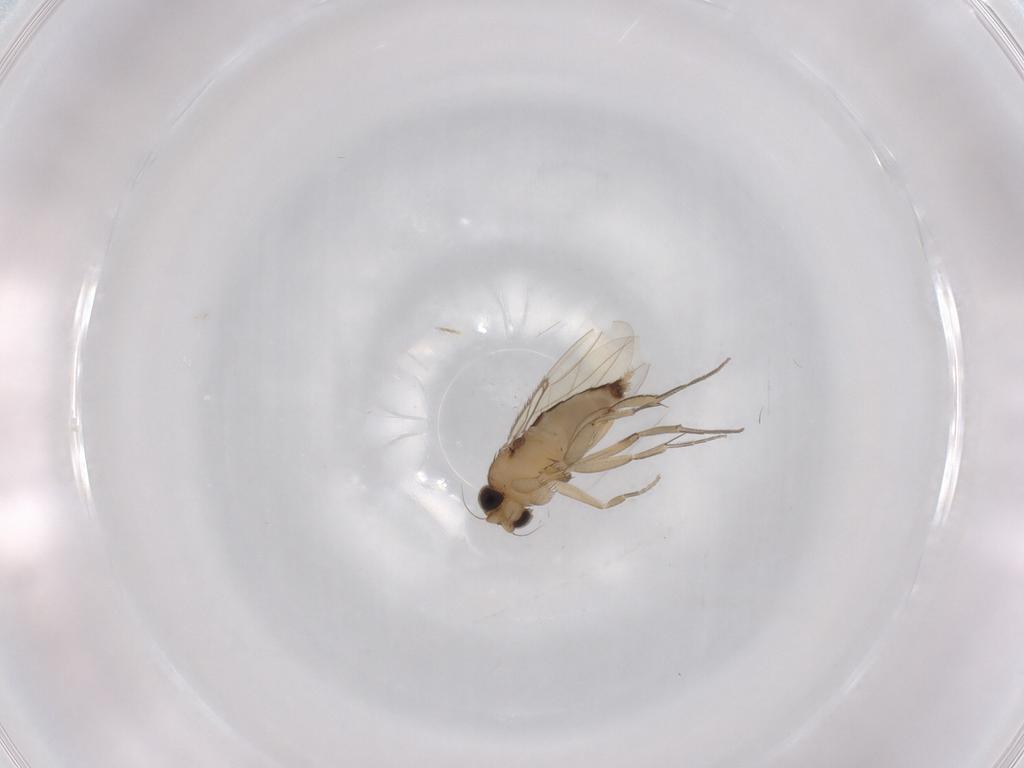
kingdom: Animalia
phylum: Arthropoda
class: Insecta
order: Diptera
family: Phoridae
